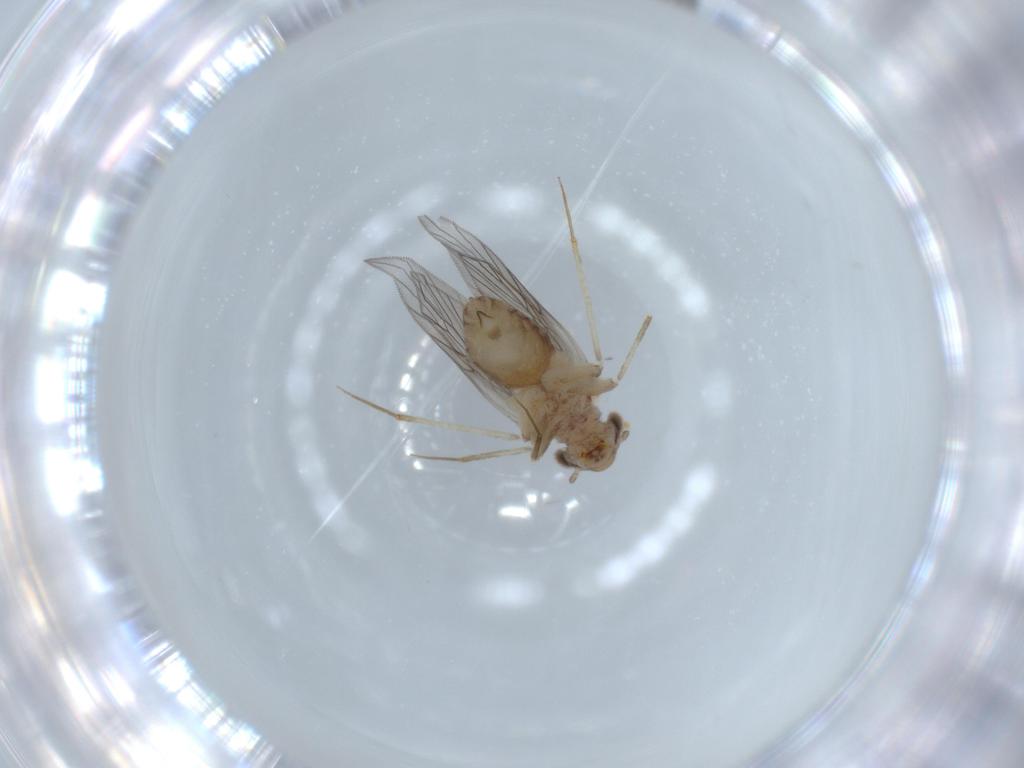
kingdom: Animalia
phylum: Arthropoda
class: Insecta
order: Psocodea
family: Lepidopsocidae
